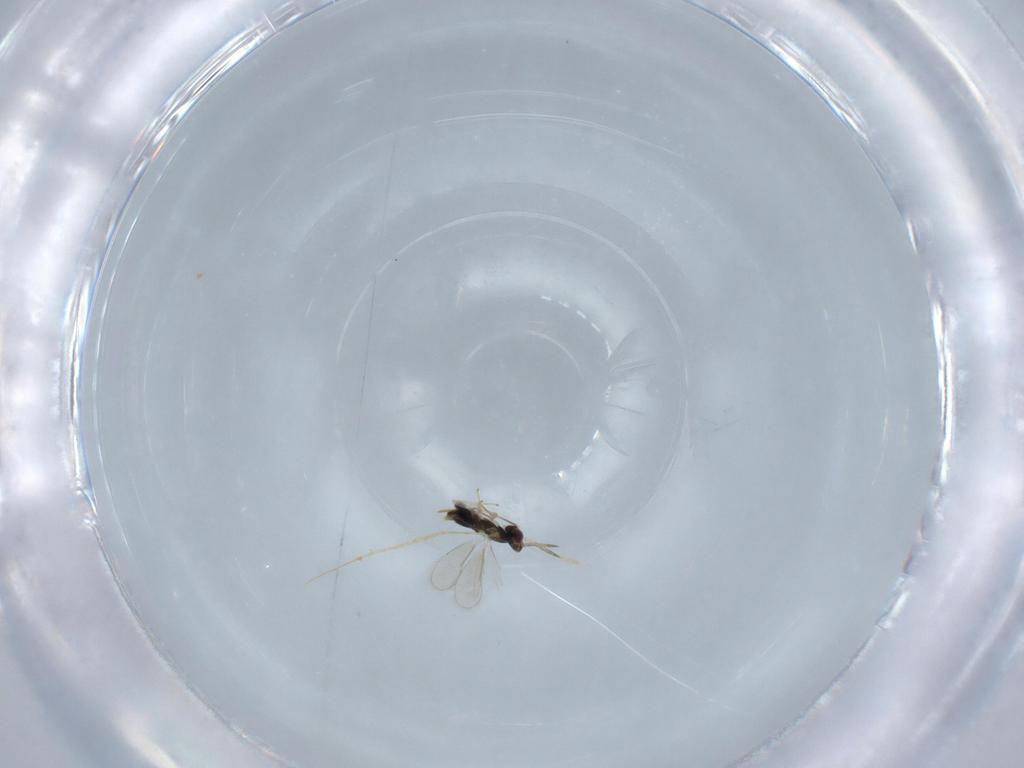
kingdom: Animalia
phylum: Arthropoda
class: Insecta
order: Hymenoptera
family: Aphelinidae
